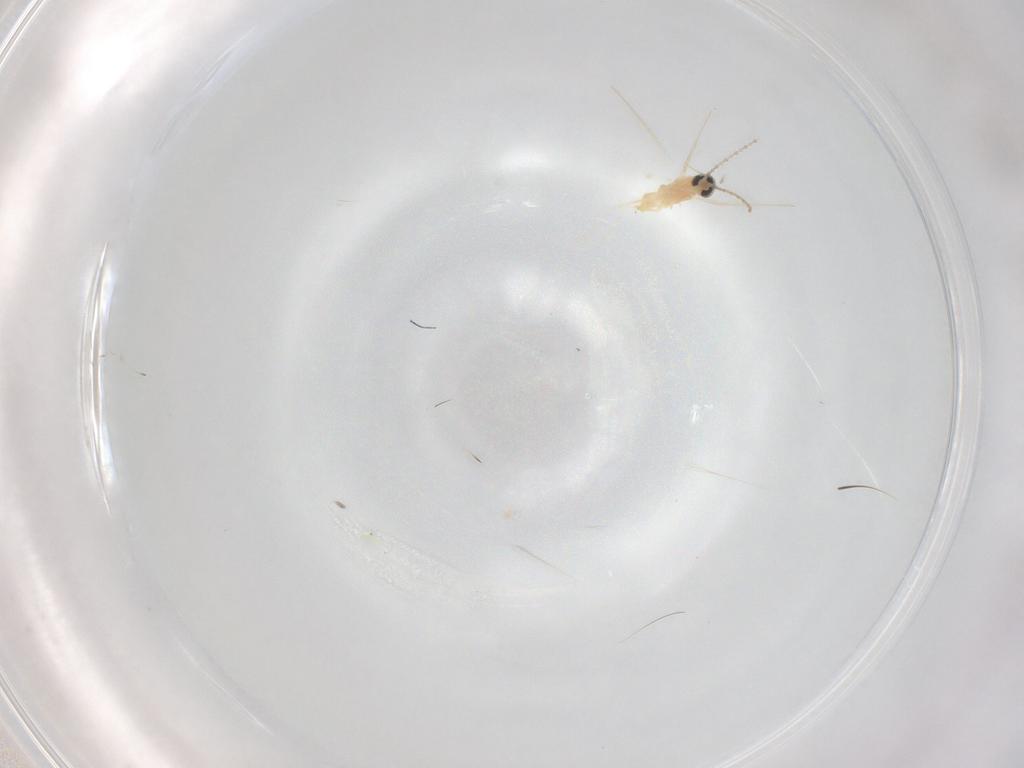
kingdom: Animalia
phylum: Arthropoda
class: Insecta
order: Diptera
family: Cecidomyiidae
